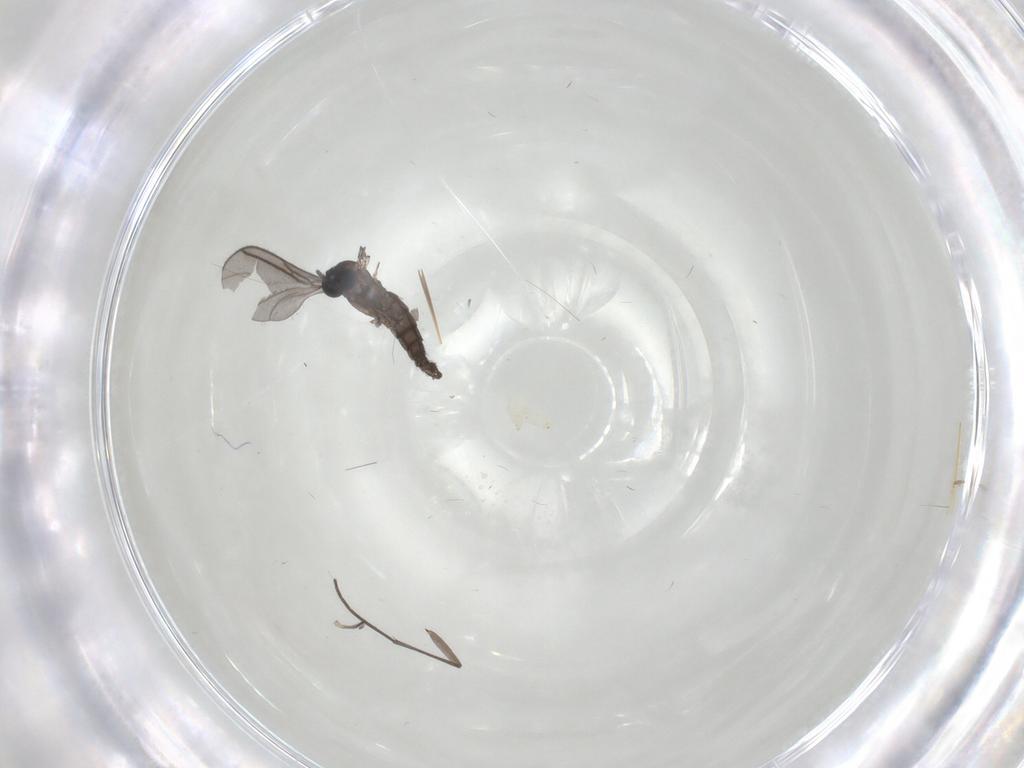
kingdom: Animalia
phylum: Arthropoda
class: Insecta
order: Diptera
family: Sciaridae
